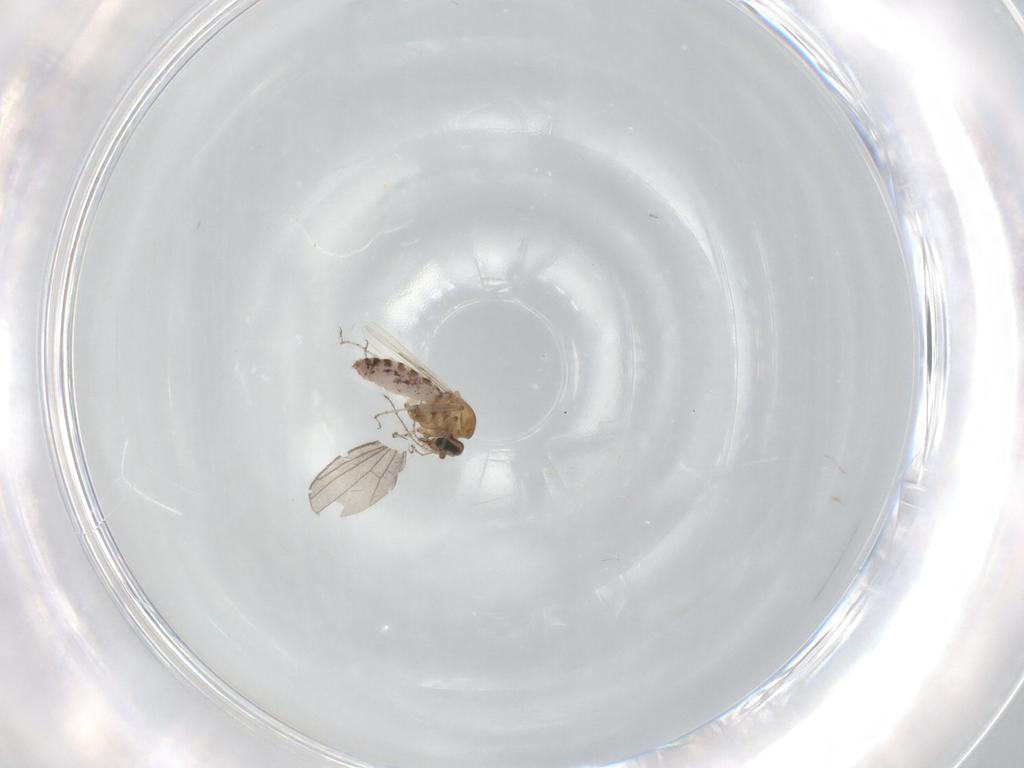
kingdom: Animalia
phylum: Arthropoda
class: Insecta
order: Diptera
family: Ceratopogonidae
